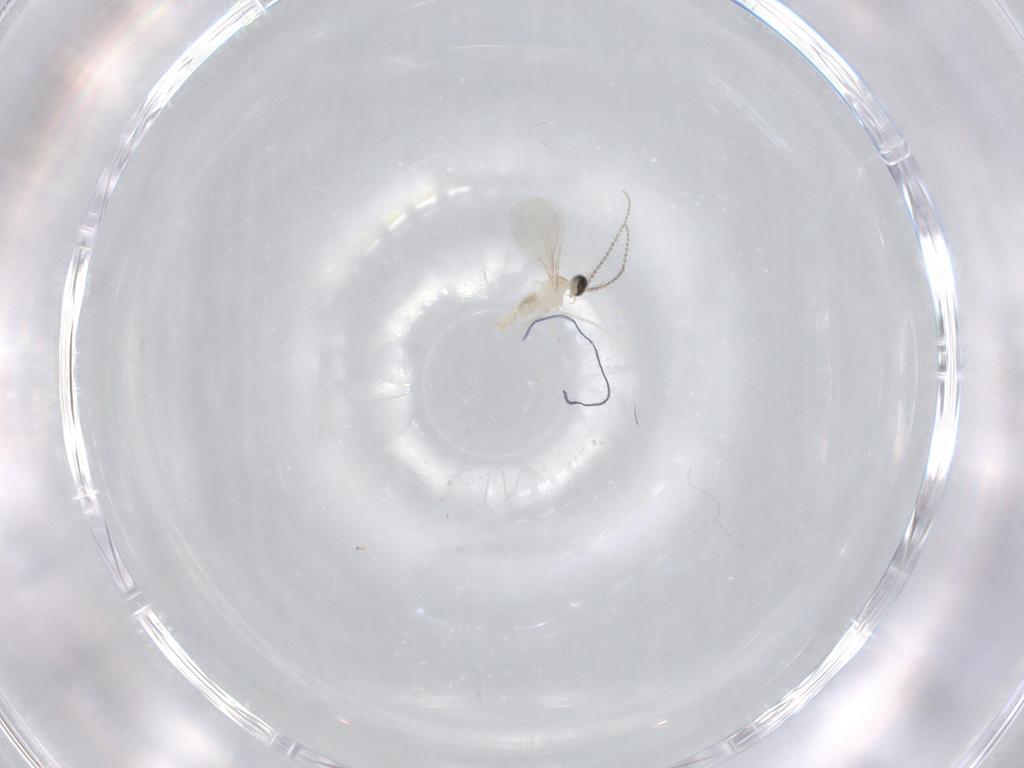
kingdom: Animalia
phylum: Arthropoda
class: Insecta
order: Diptera
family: Cecidomyiidae
